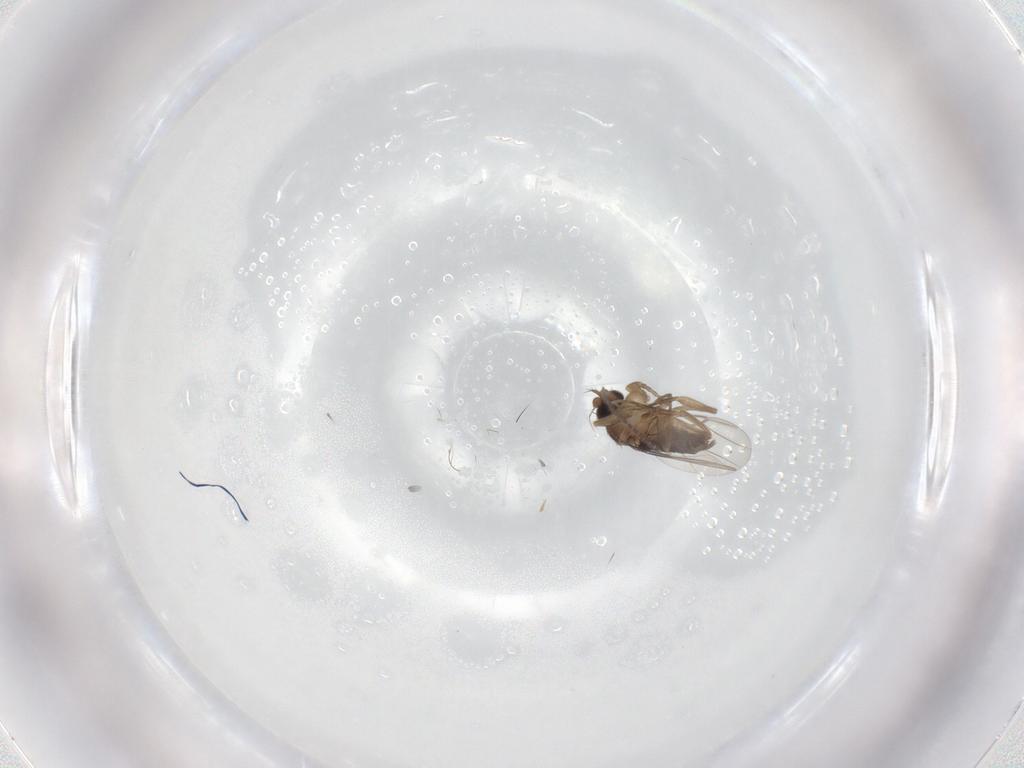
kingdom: Animalia
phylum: Arthropoda
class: Insecta
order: Diptera
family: Sciaridae
